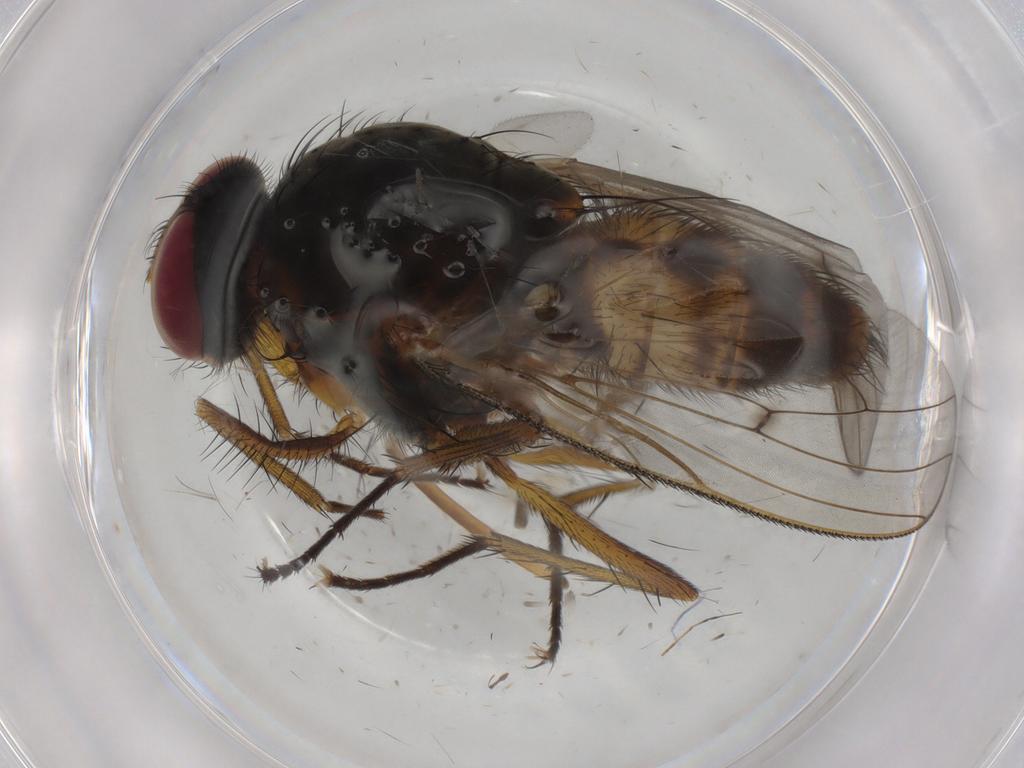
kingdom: Animalia
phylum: Arthropoda
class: Insecta
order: Diptera
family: Anthomyiidae
